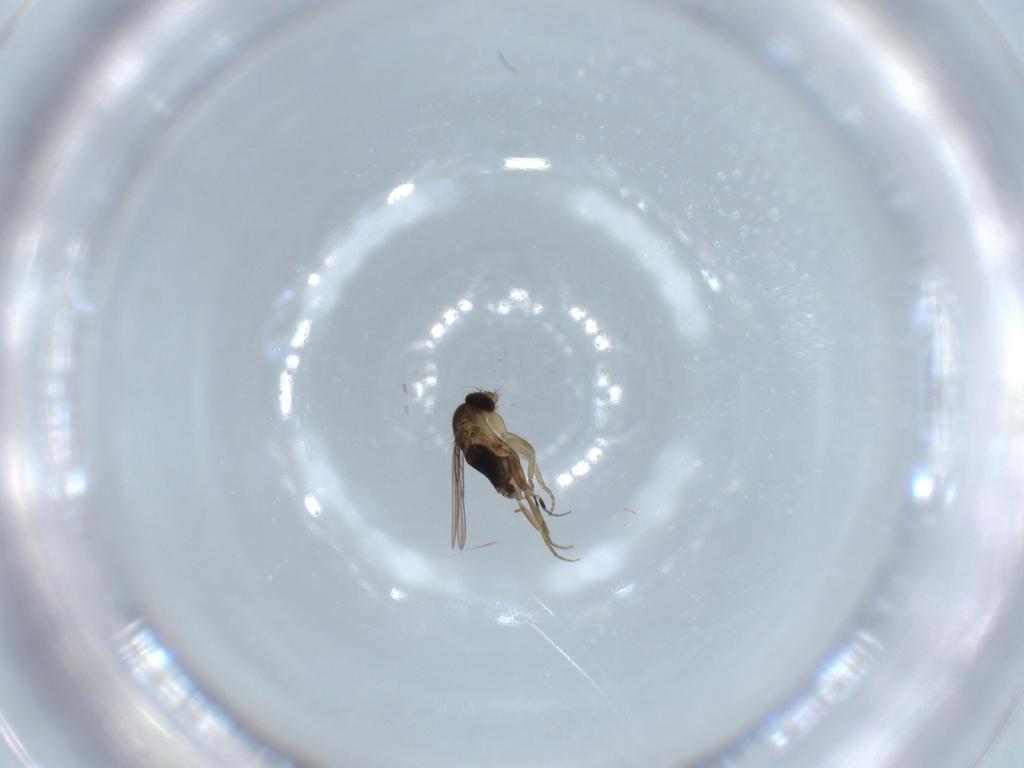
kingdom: Animalia
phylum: Arthropoda
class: Insecta
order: Diptera
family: Phoridae
